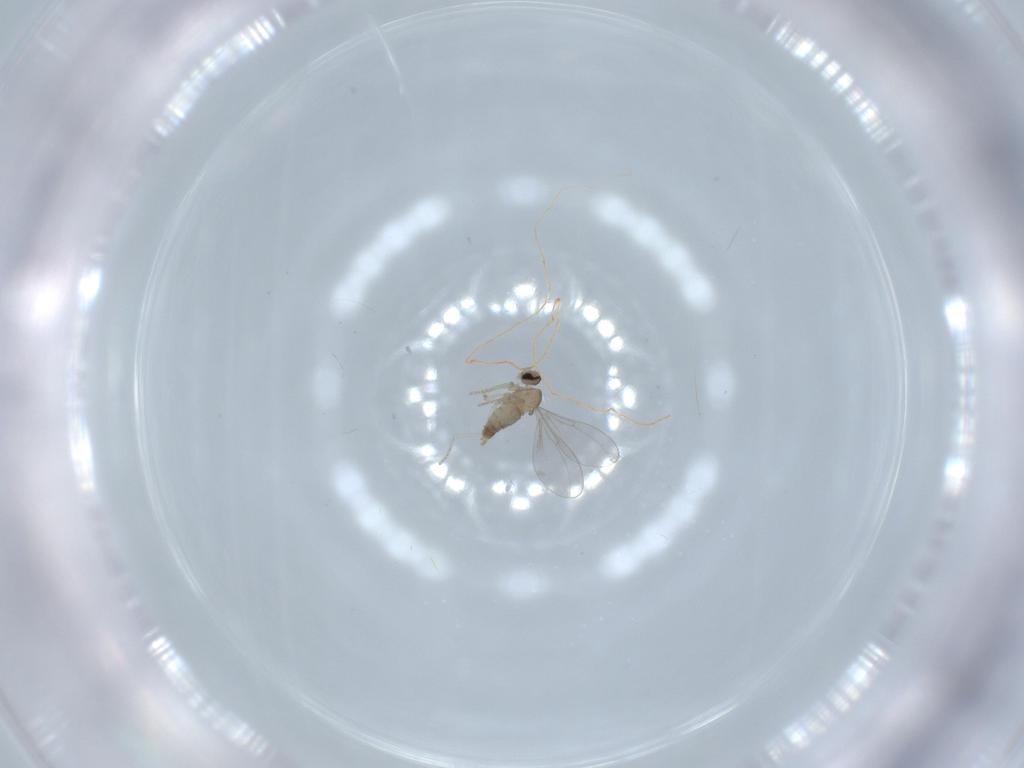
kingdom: Animalia
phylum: Arthropoda
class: Insecta
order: Diptera
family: Cecidomyiidae
